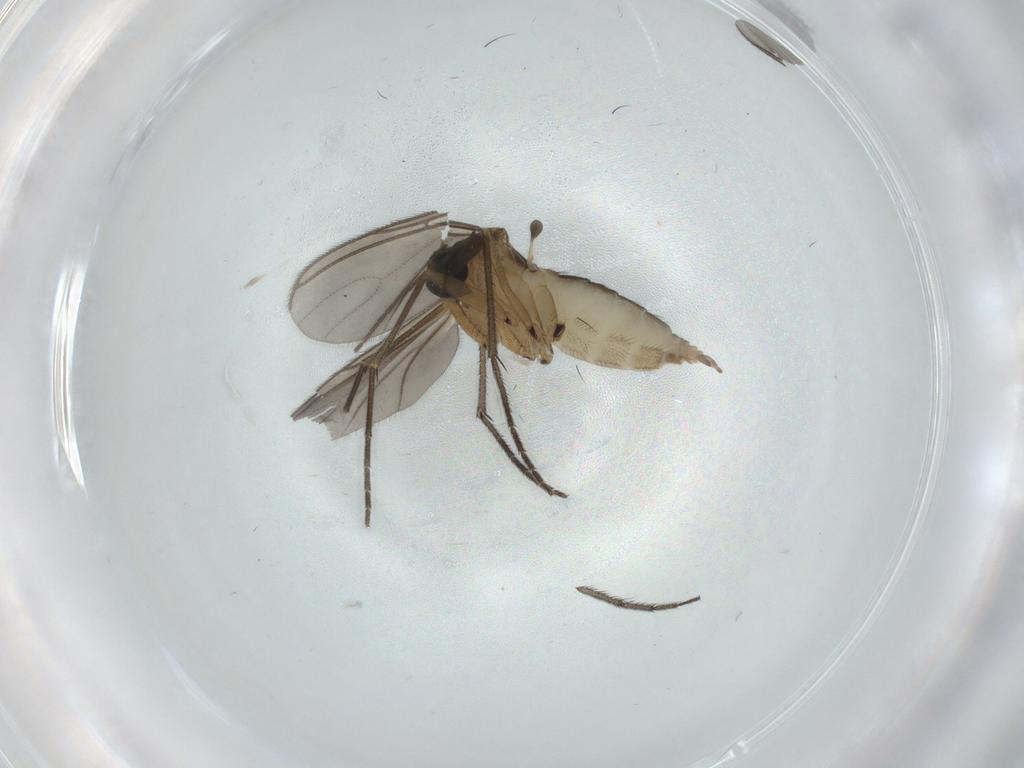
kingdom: Animalia
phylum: Arthropoda
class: Insecta
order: Diptera
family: Sciaridae
